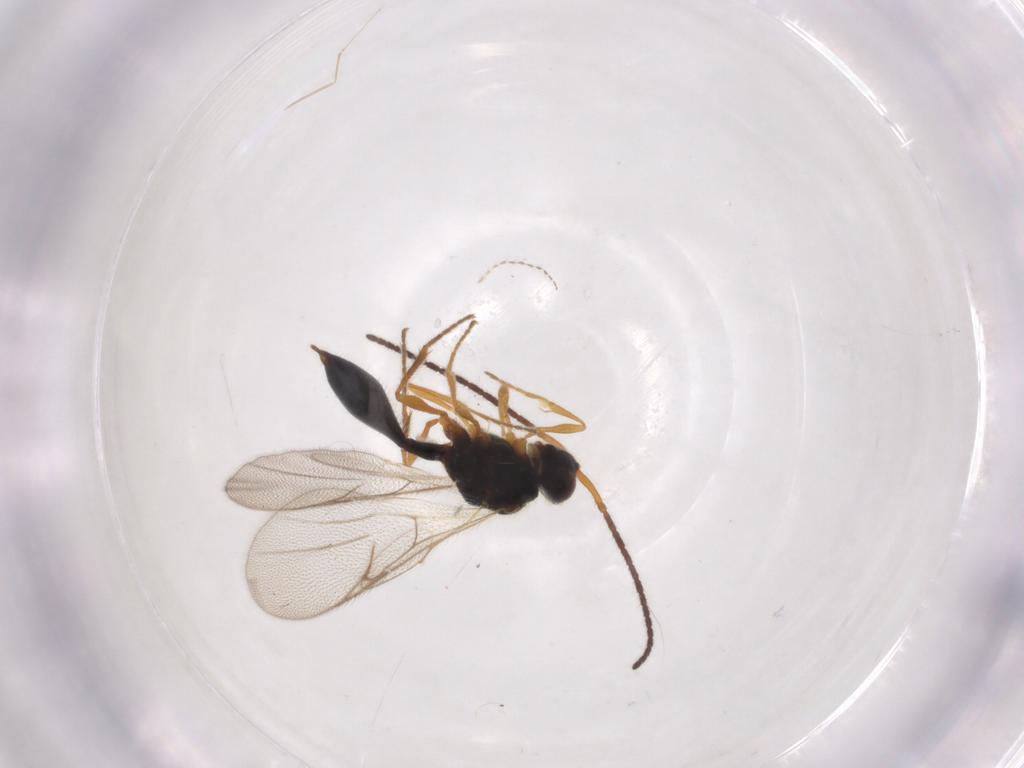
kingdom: Animalia
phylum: Arthropoda
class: Insecta
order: Hymenoptera
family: Diapriidae
